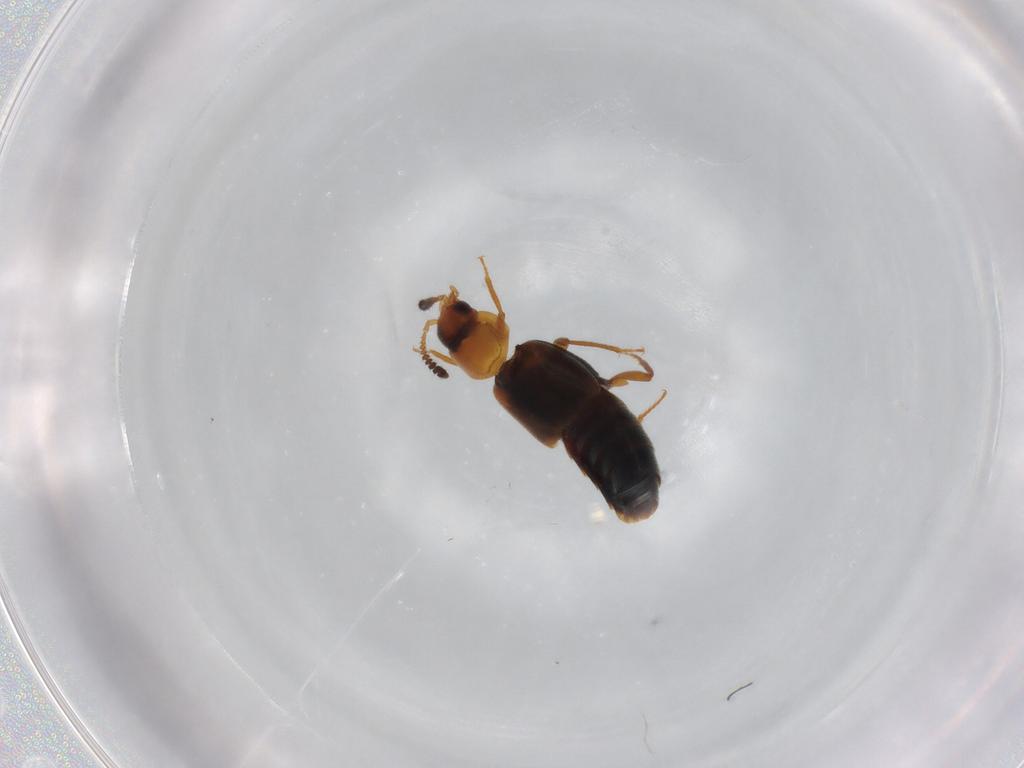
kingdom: Animalia
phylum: Arthropoda
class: Insecta
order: Coleoptera
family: Staphylinidae
